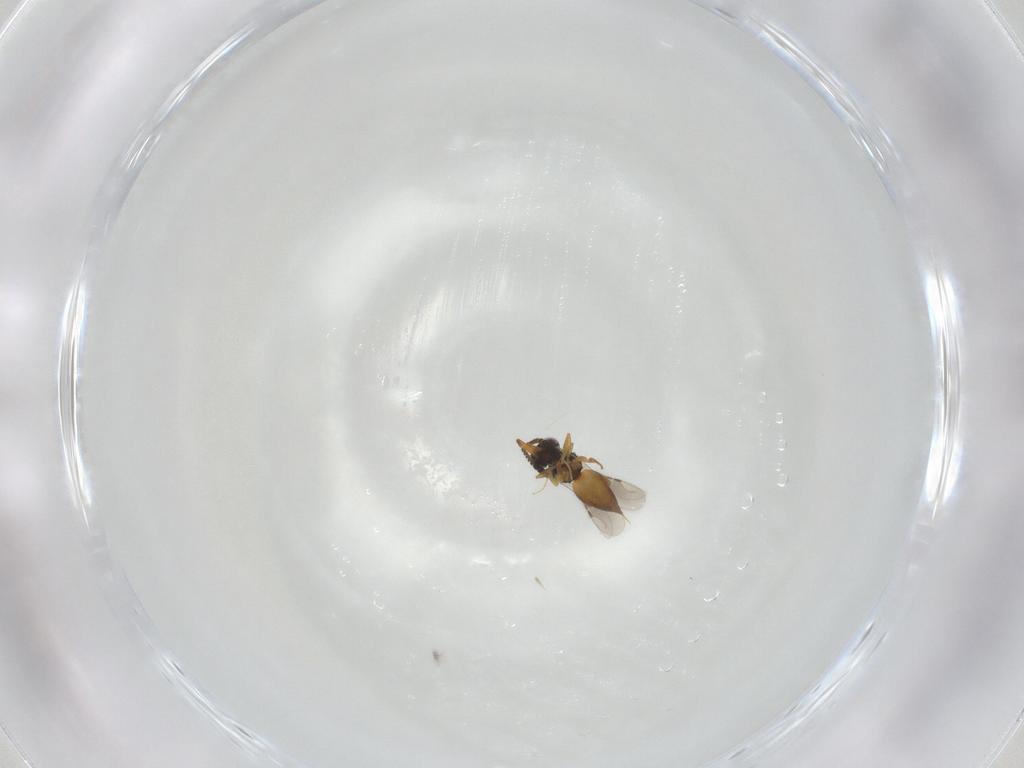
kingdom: Animalia
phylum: Arthropoda
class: Insecta
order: Hymenoptera
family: Ceraphronidae
